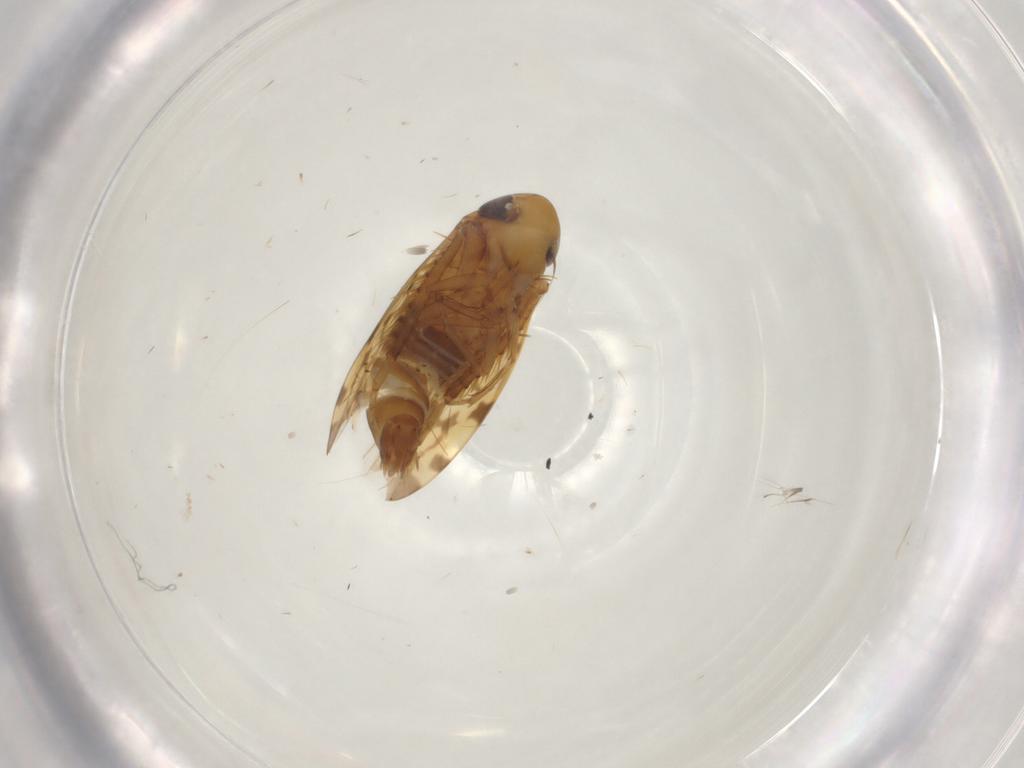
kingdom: Animalia
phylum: Arthropoda
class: Insecta
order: Hemiptera
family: Cicadellidae
